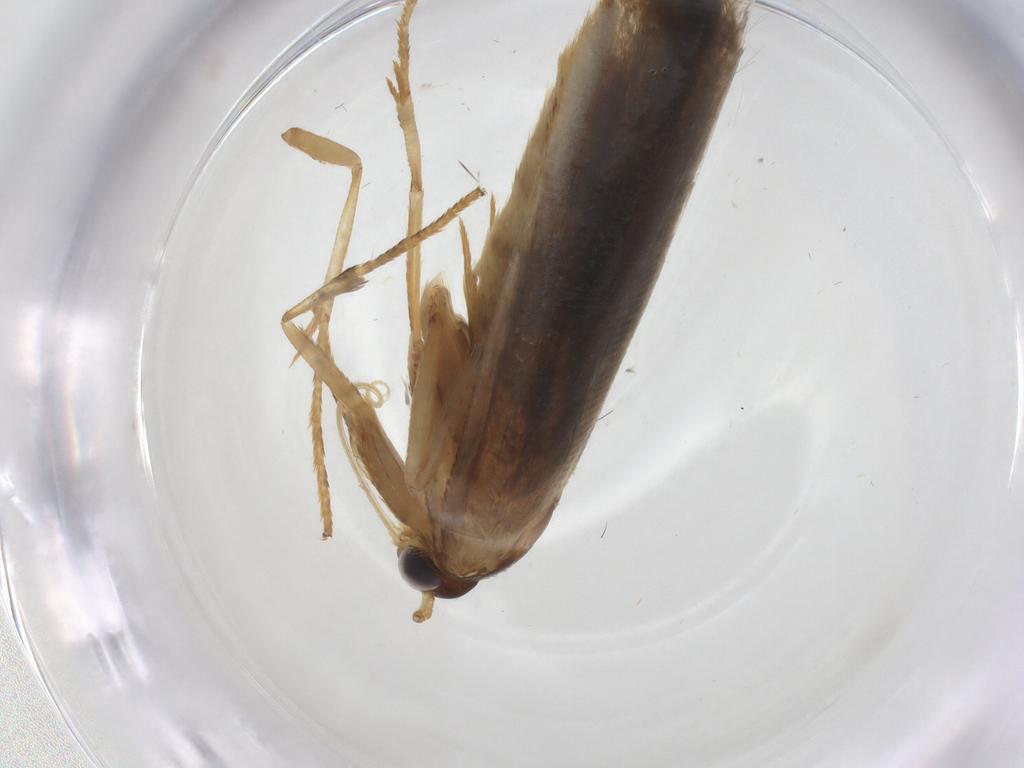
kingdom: Animalia
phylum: Arthropoda
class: Insecta
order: Lepidoptera
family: Blastobasidae
